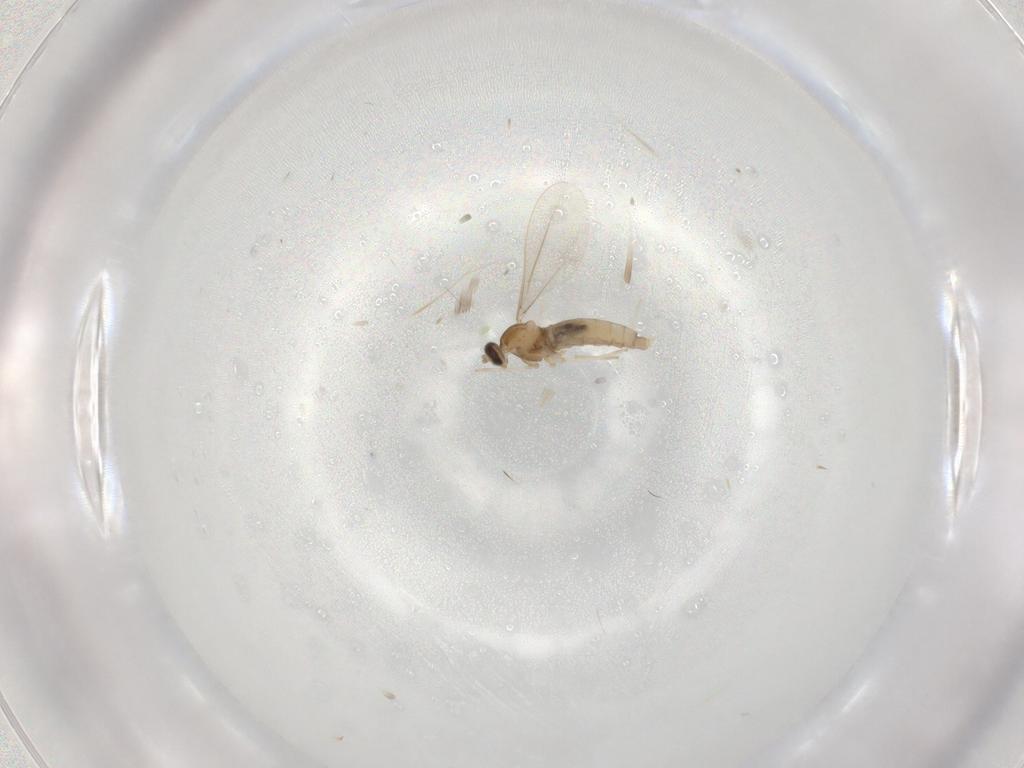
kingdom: Animalia
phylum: Arthropoda
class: Insecta
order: Diptera
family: Cecidomyiidae
